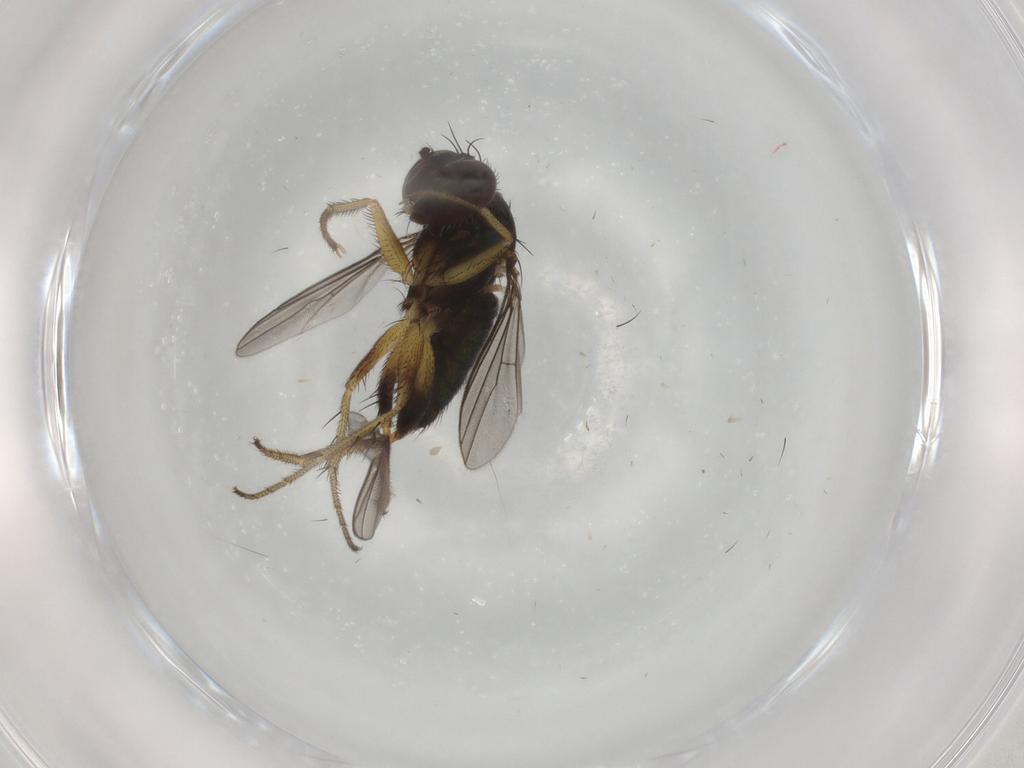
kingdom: Animalia
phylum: Arthropoda
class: Insecta
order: Diptera
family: Dolichopodidae
